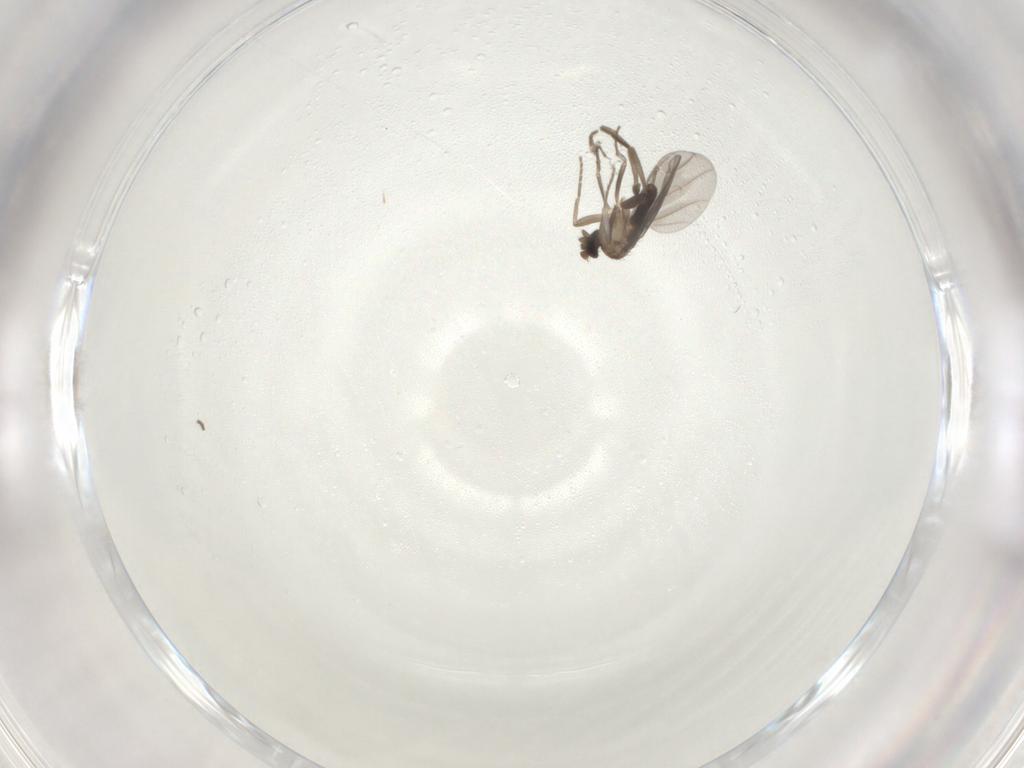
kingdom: Animalia
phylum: Arthropoda
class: Insecta
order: Diptera
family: Phoridae
